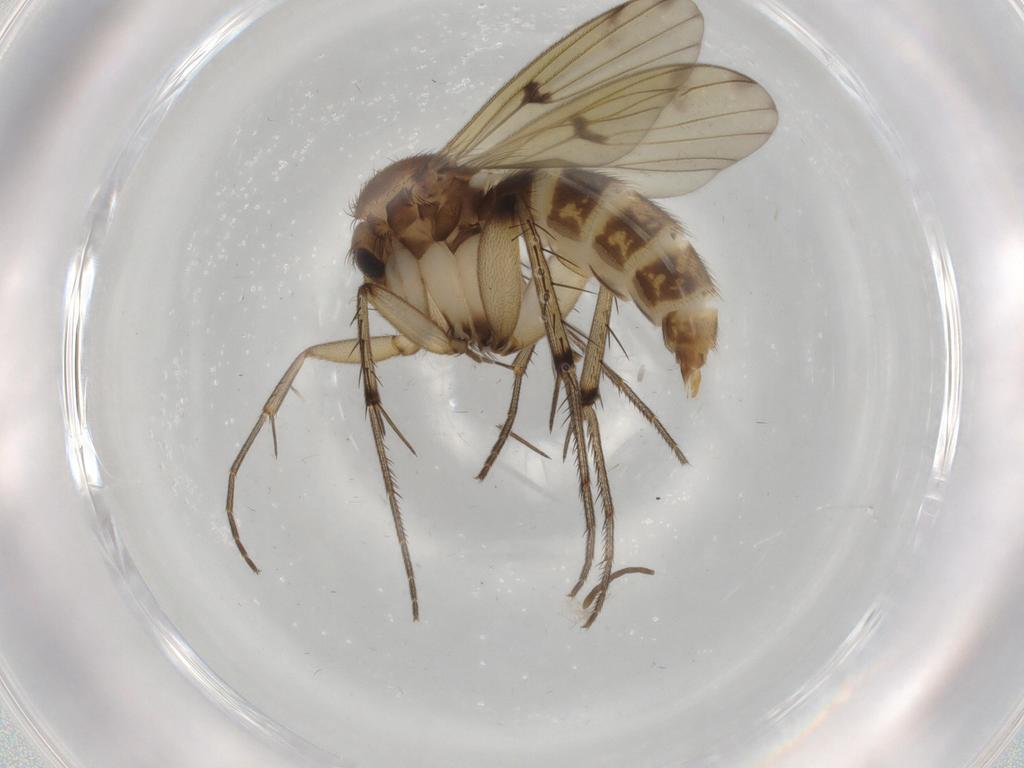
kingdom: Animalia
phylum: Arthropoda
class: Insecta
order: Diptera
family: Mycetophilidae
